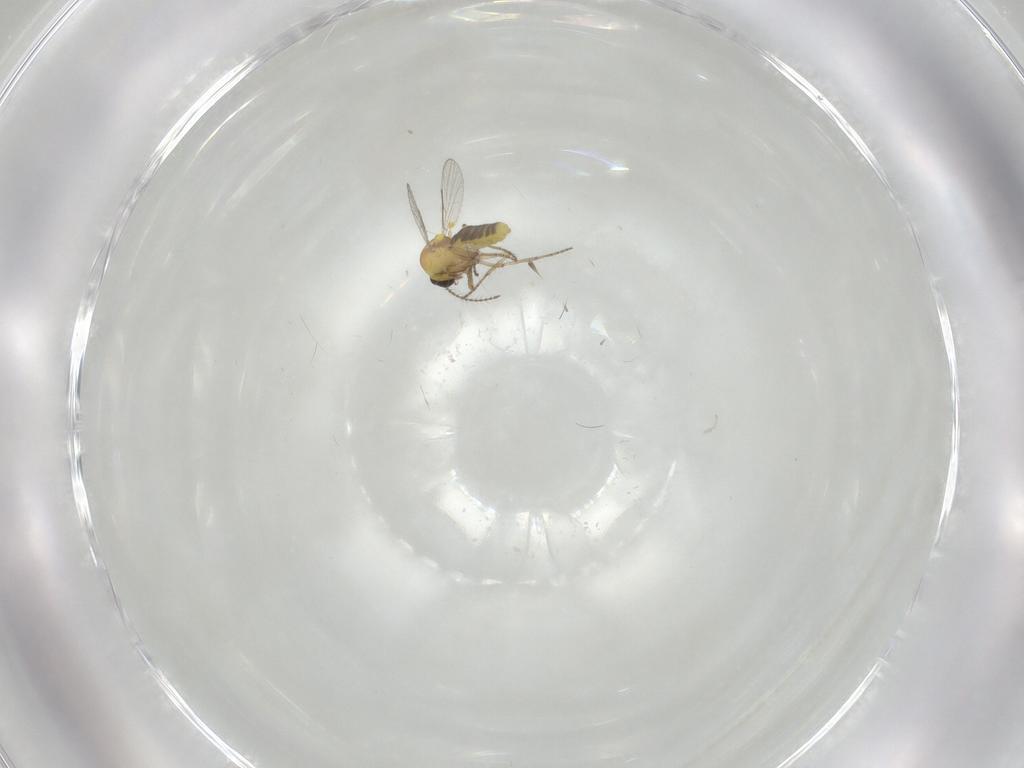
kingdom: Animalia
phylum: Arthropoda
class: Insecta
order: Diptera
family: Cecidomyiidae
